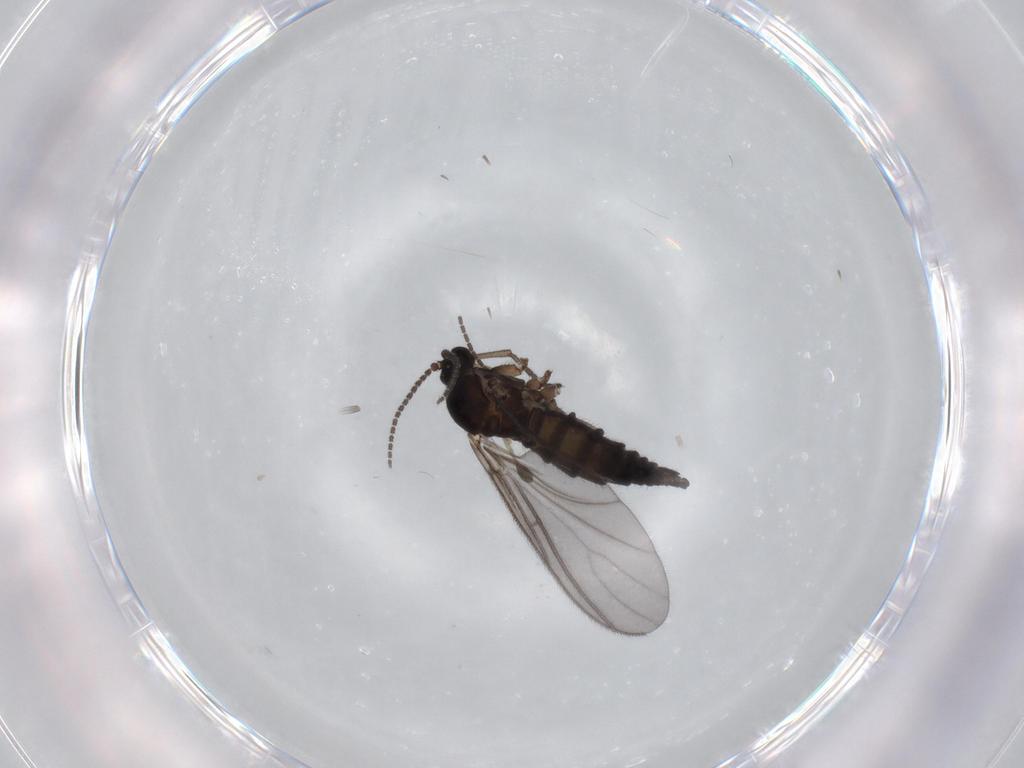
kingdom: Animalia
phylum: Arthropoda
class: Insecta
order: Diptera
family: Sciaridae
